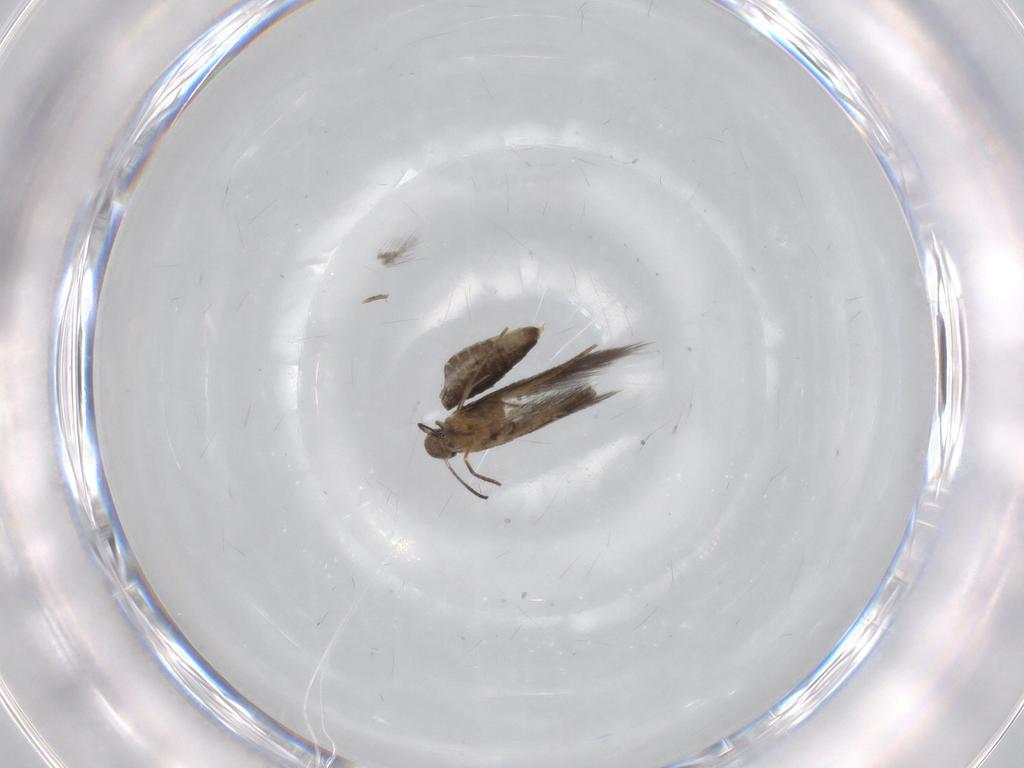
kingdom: Animalia
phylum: Arthropoda
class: Insecta
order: Lepidoptera
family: Heliozelidae
